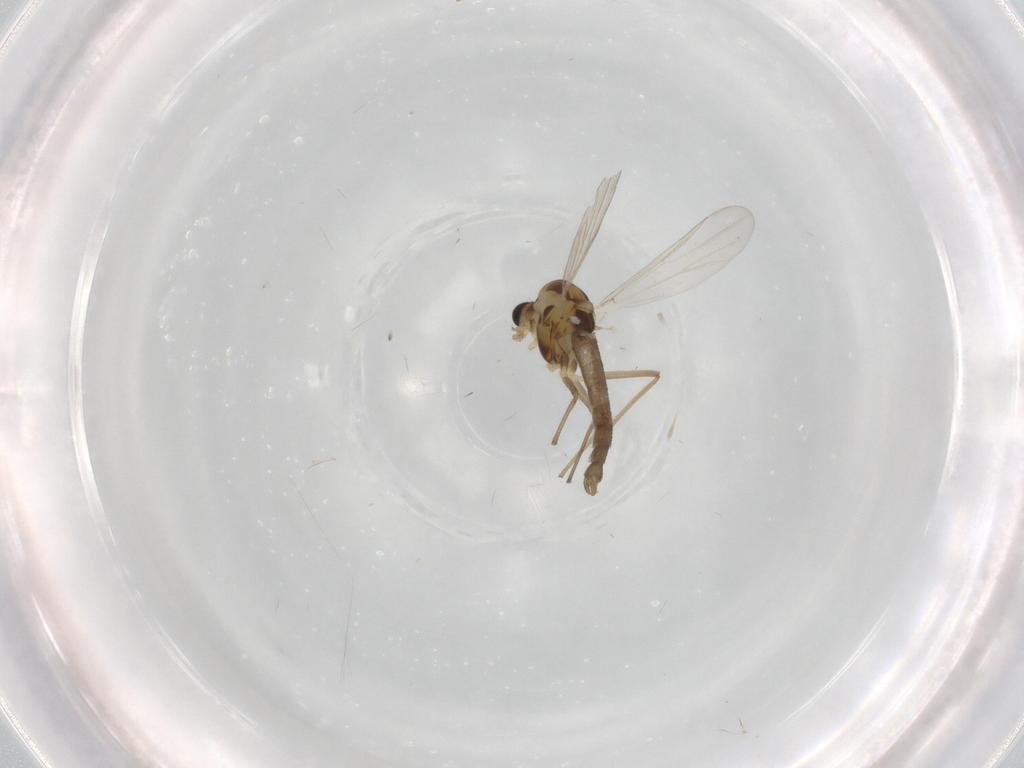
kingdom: Animalia
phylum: Arthropoda
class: Insecta
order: Diptera
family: Chironomidae
